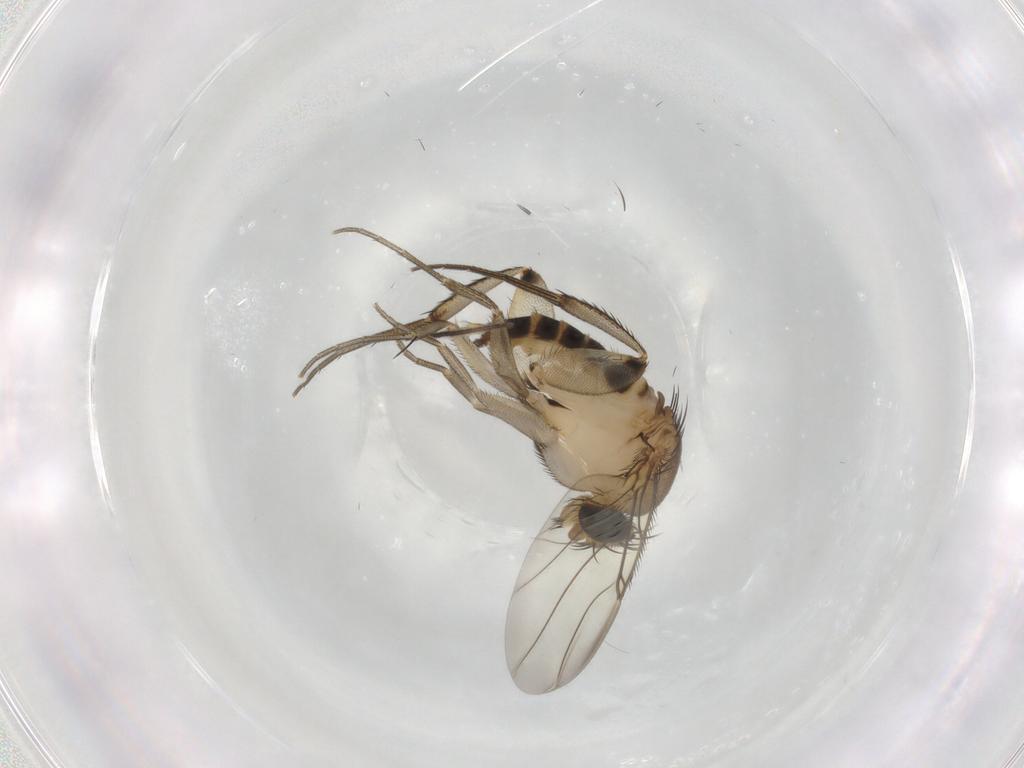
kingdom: Animalia
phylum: Arthropoda
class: Insecta
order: Diptera
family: Phoridae
